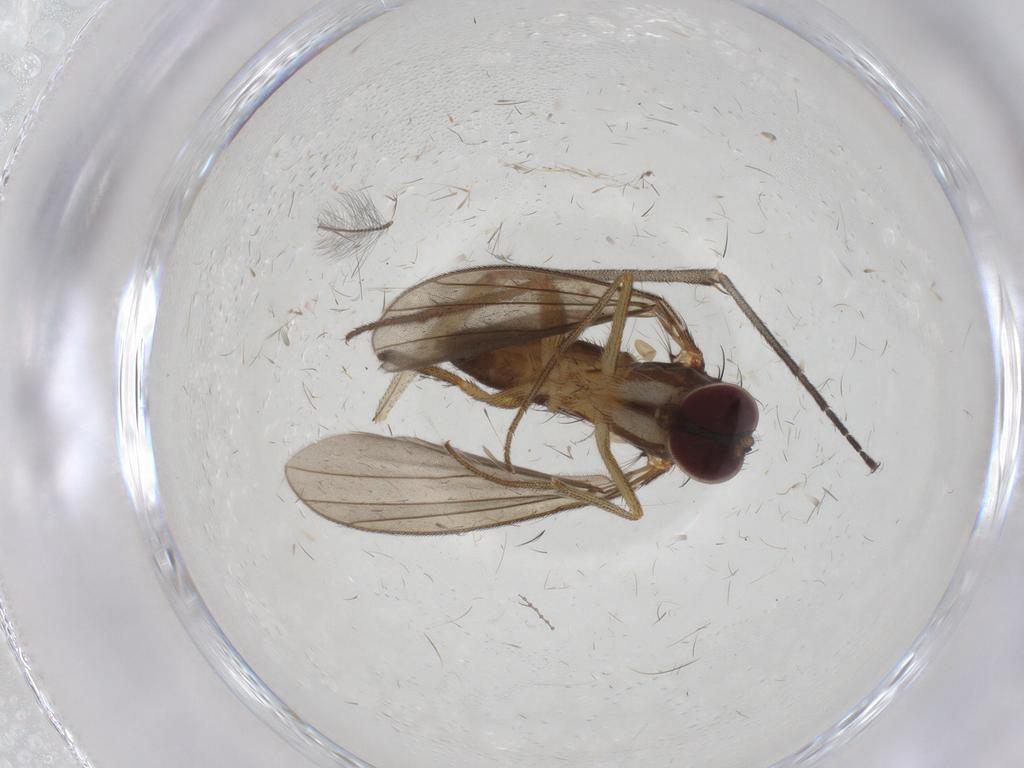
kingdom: Animalia
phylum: Arthropoda
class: Insecta
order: Diptera
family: Dolichopodidae
